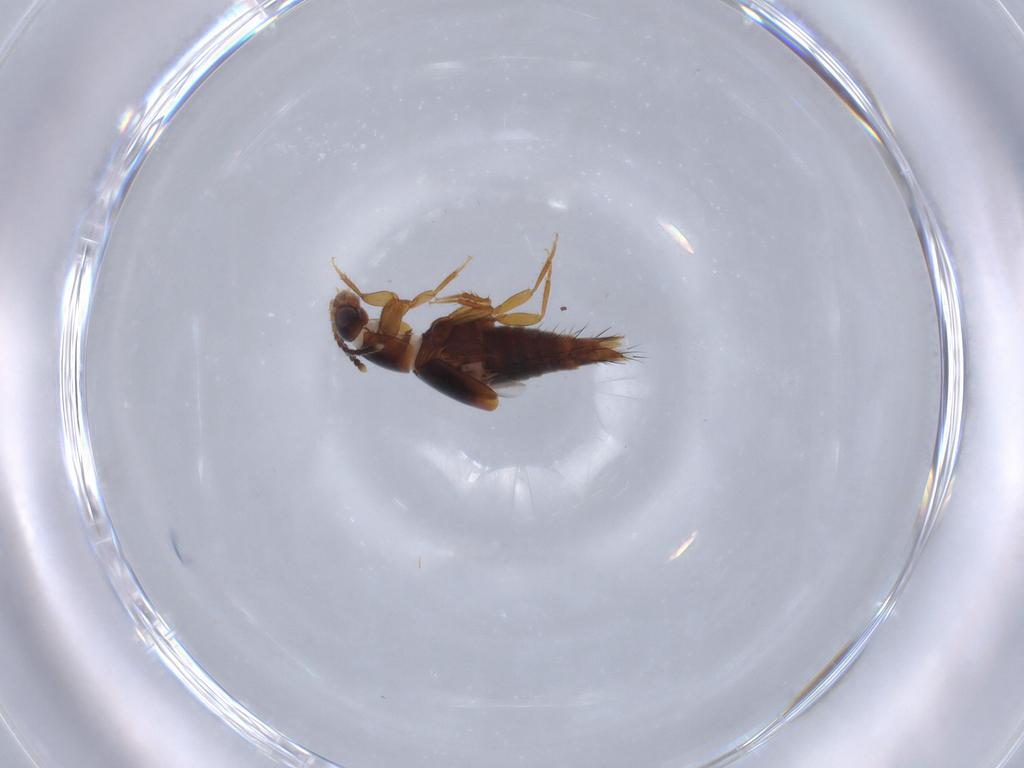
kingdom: Animalia
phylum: Arthropoda
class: Insecta
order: Coleoptera
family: Staphylinidae
